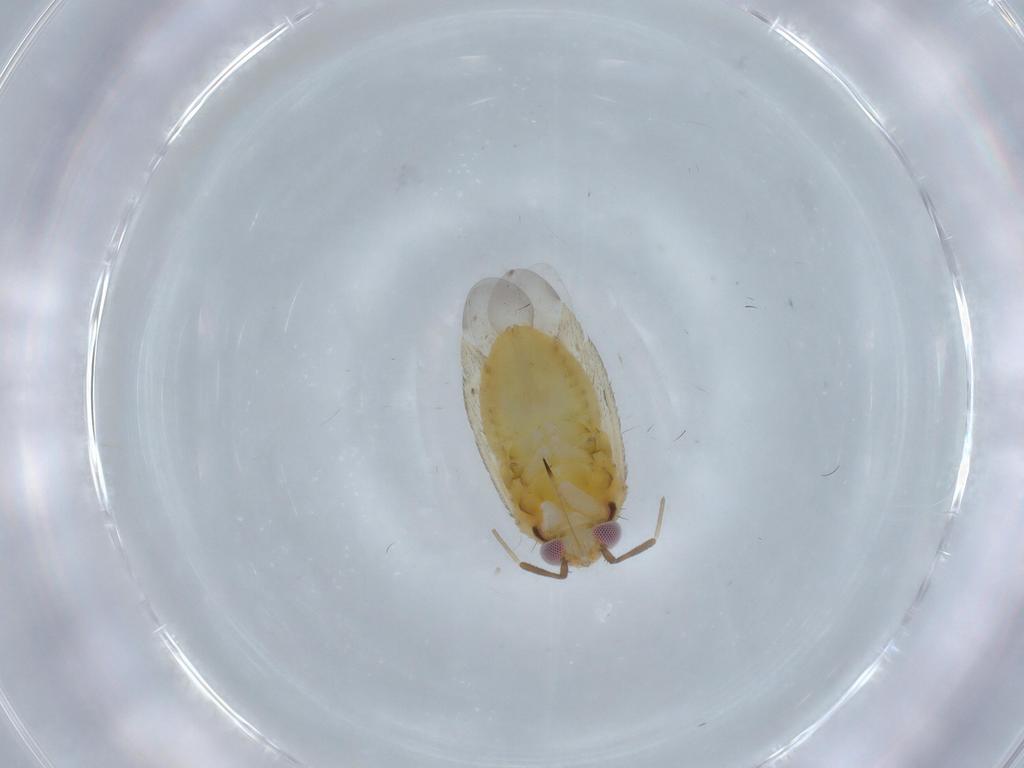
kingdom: Animalia
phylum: Arthropoda
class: Insecta
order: Hemiptera
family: Miridae
